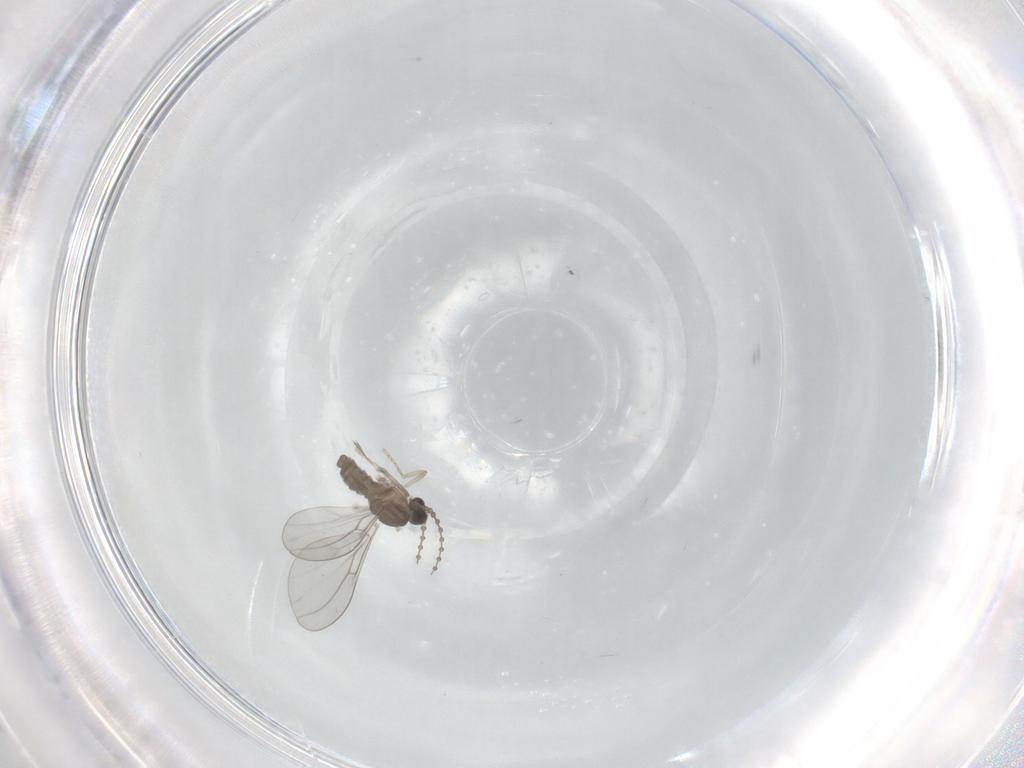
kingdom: Animalia
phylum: Arthropoda
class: Insecta
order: Diptera
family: Cecidomyiidae
